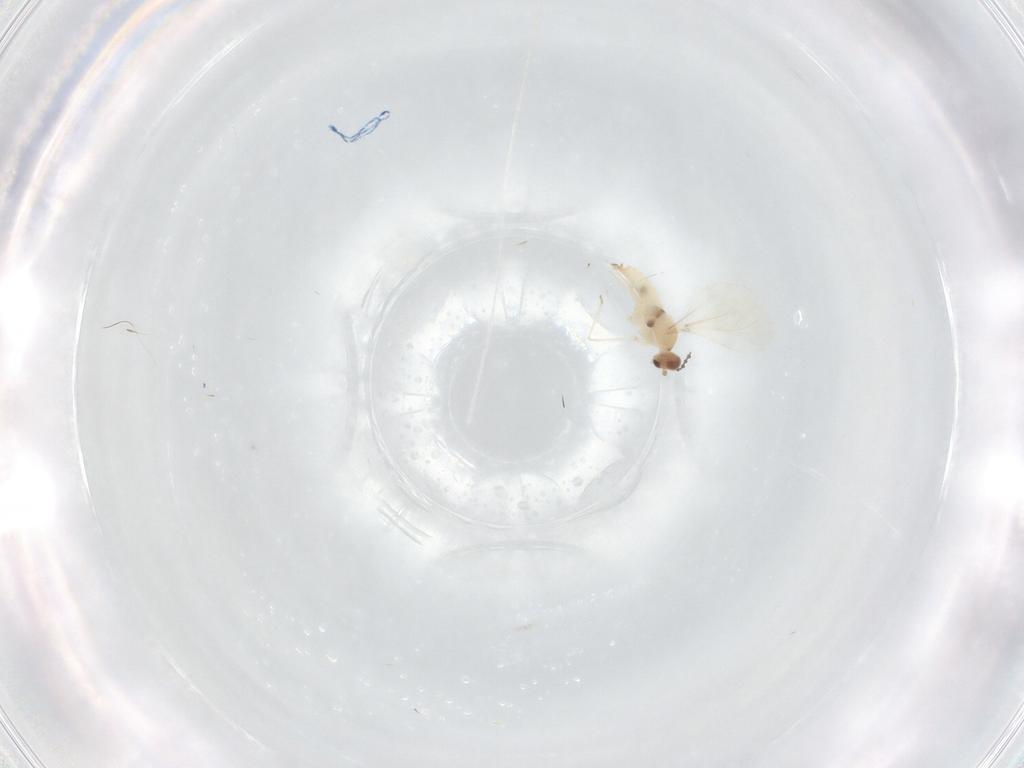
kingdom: Animalia
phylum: Arthropoda
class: Insecta
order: Diptera
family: Cecidomyiidae
